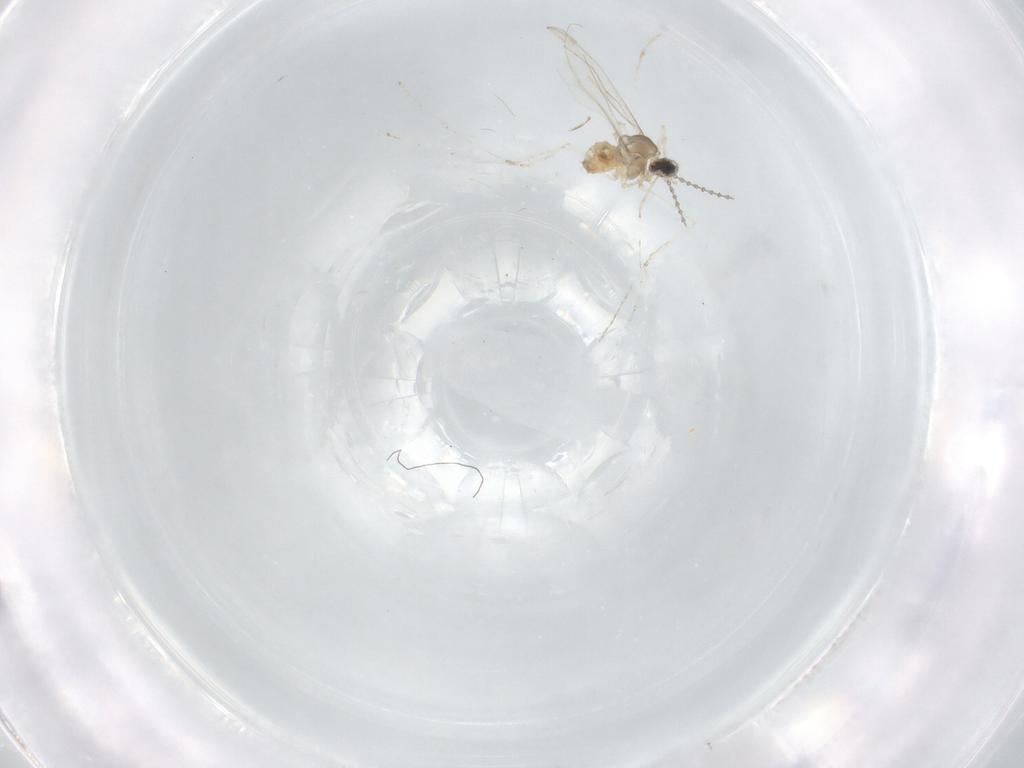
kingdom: Animalia
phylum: Arthropoda
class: Insecta
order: Diptera
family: Cecidomyiidae
